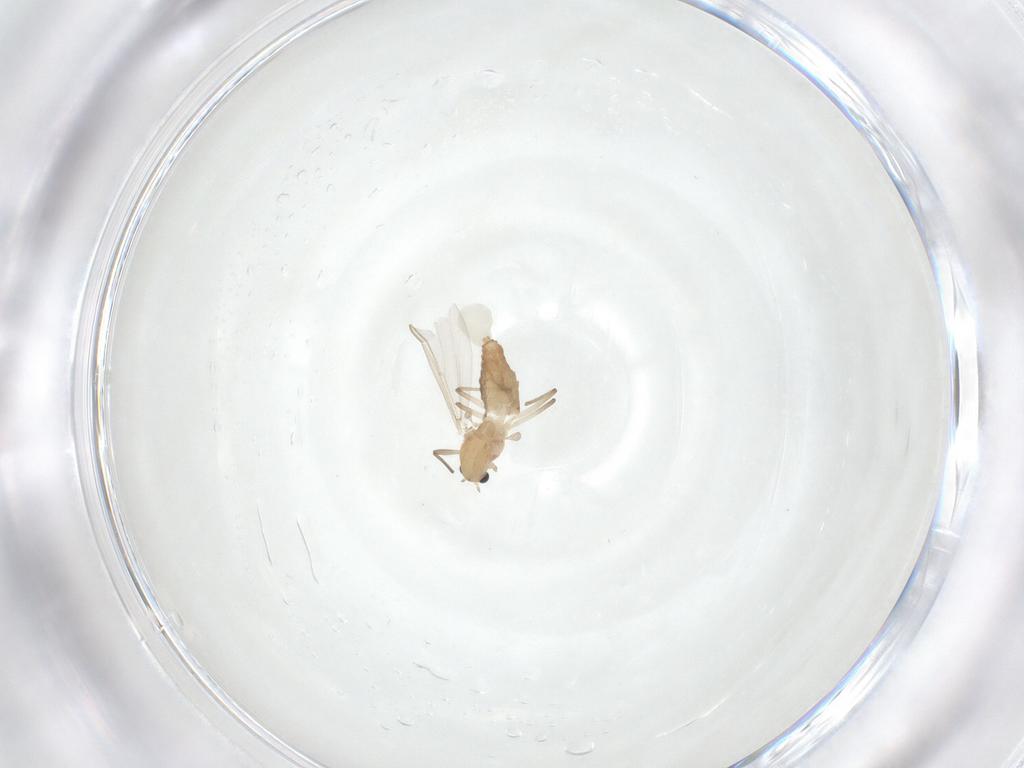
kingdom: Animalia
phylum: Arthropoda
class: Insecta
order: Diptera
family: Chironomidae
